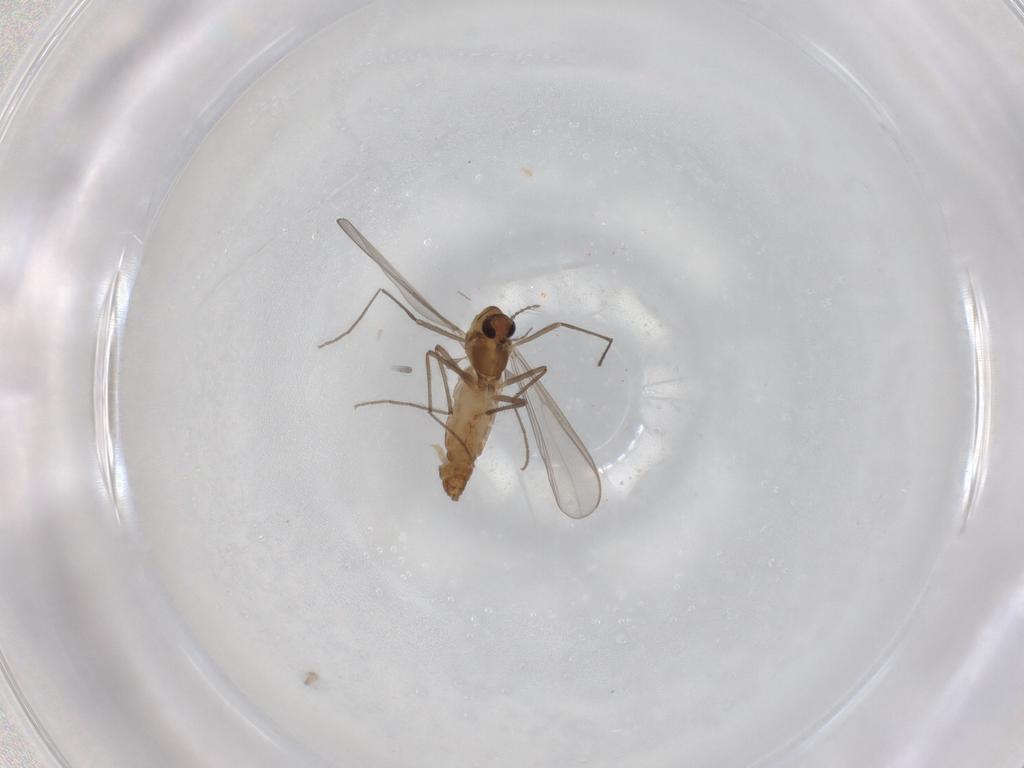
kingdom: Animalia
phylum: Arthropoda
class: Insecta
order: Diptera
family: Chironomidae
